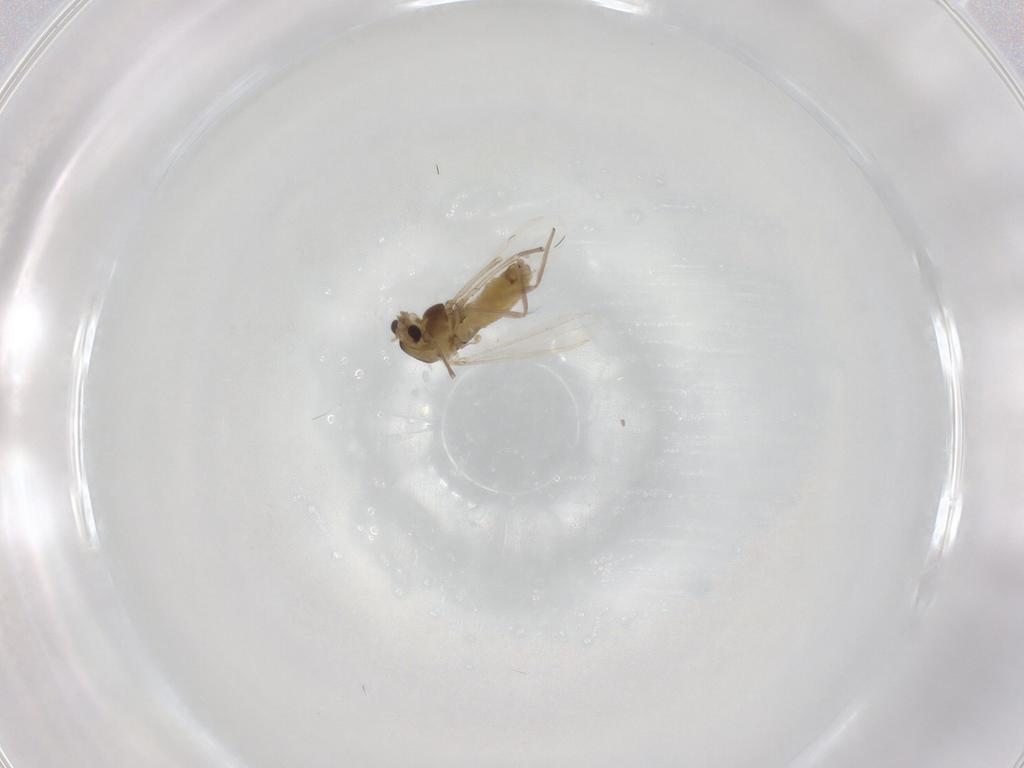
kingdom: Animalia
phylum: Arthropoda
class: Insecta
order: Diptera
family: Chironomidae
